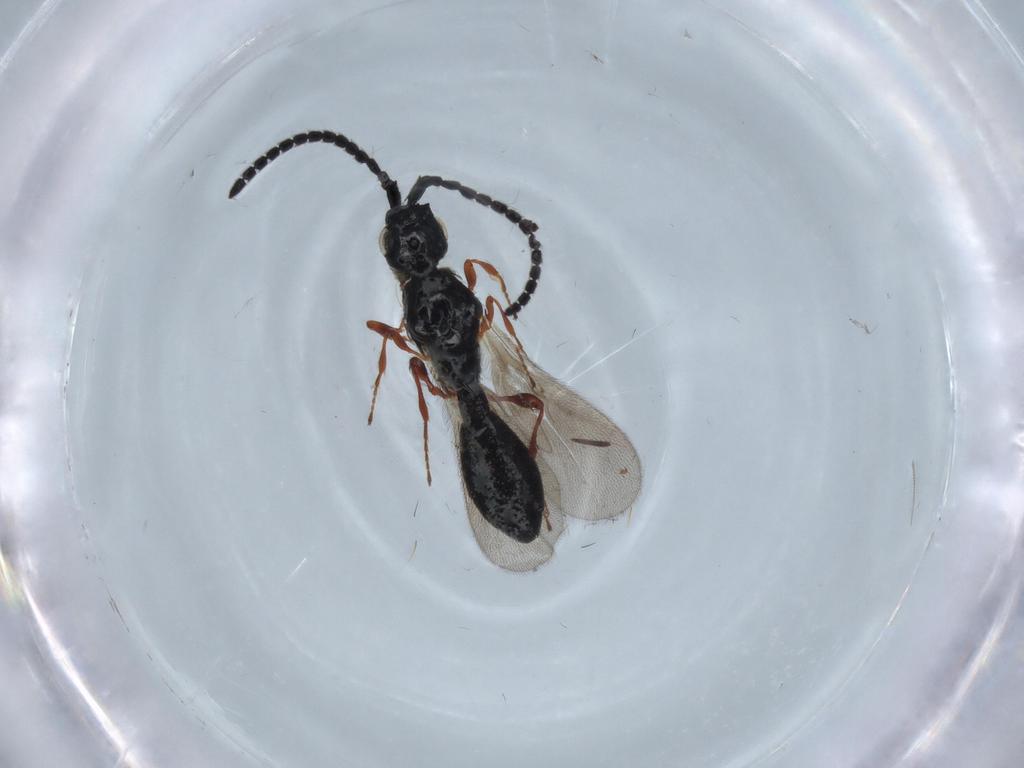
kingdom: Animalia
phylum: Arthropoda
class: Insecta
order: Hymenoptera
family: Diapriidae
